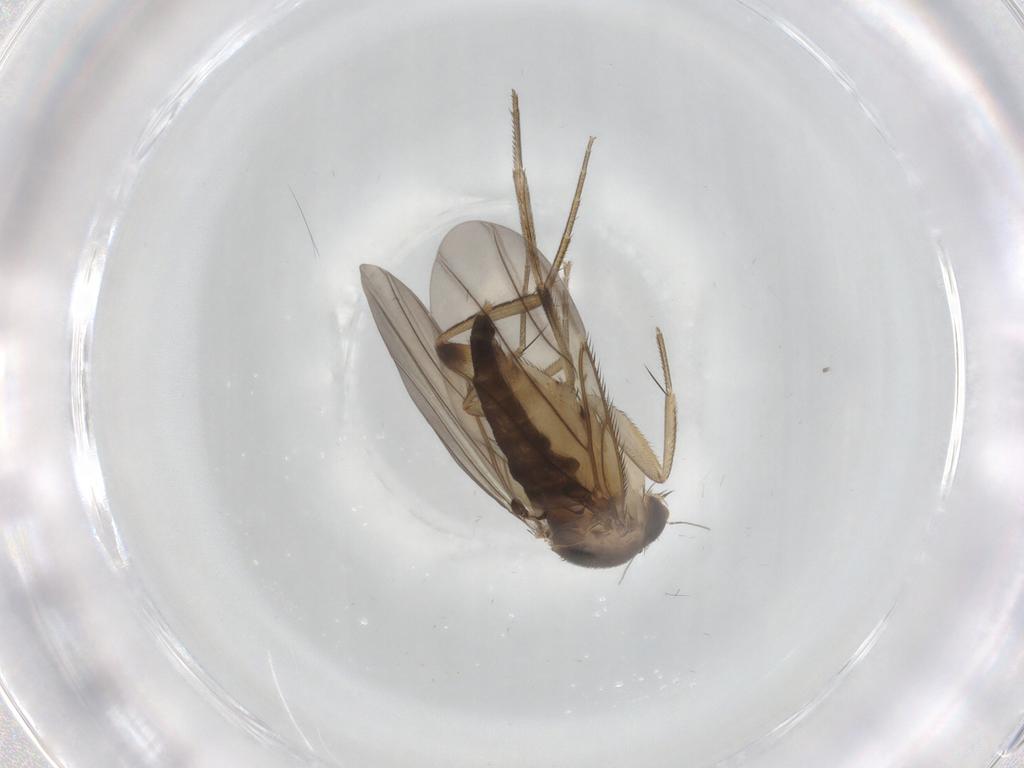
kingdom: Animalia
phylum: Arthropoda
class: Insecta
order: Diptera
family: Phoridae
